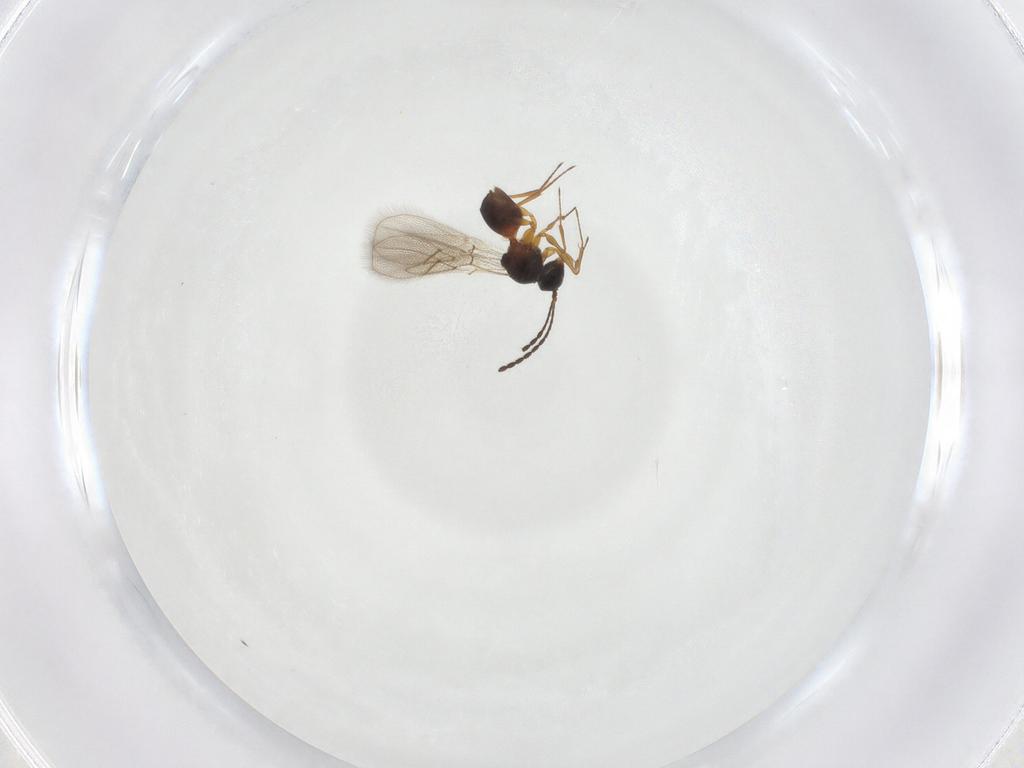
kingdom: Animalia
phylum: Arthropoda
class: Insecta
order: Hymenoptera
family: Figitidae
